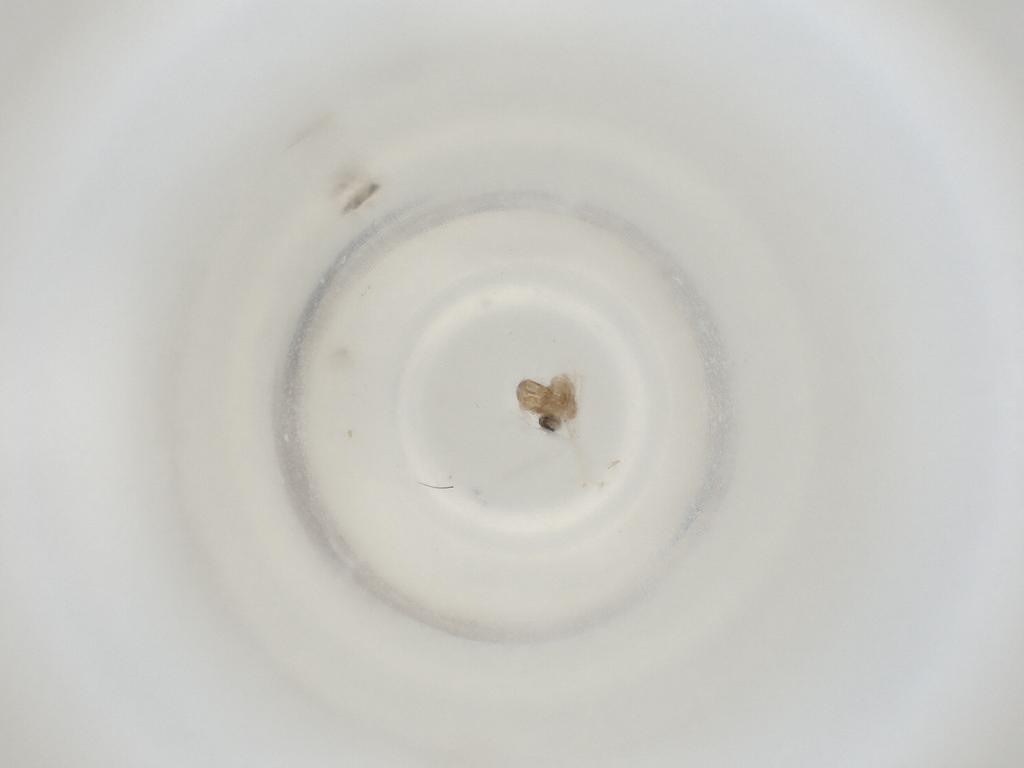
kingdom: Animalia
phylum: Arthropoda
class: Insecta
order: Diptera
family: Cecidomyiidae
